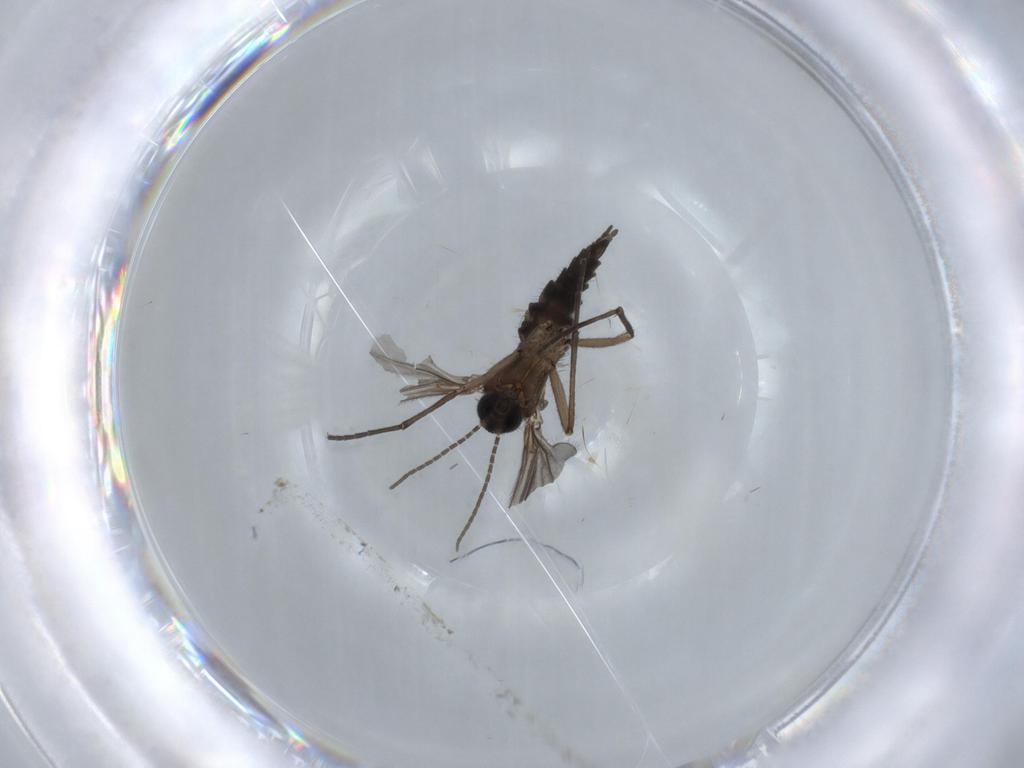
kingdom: Animalia
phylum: Arthropoda
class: Insecta
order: Diptera
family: Sciaridae
